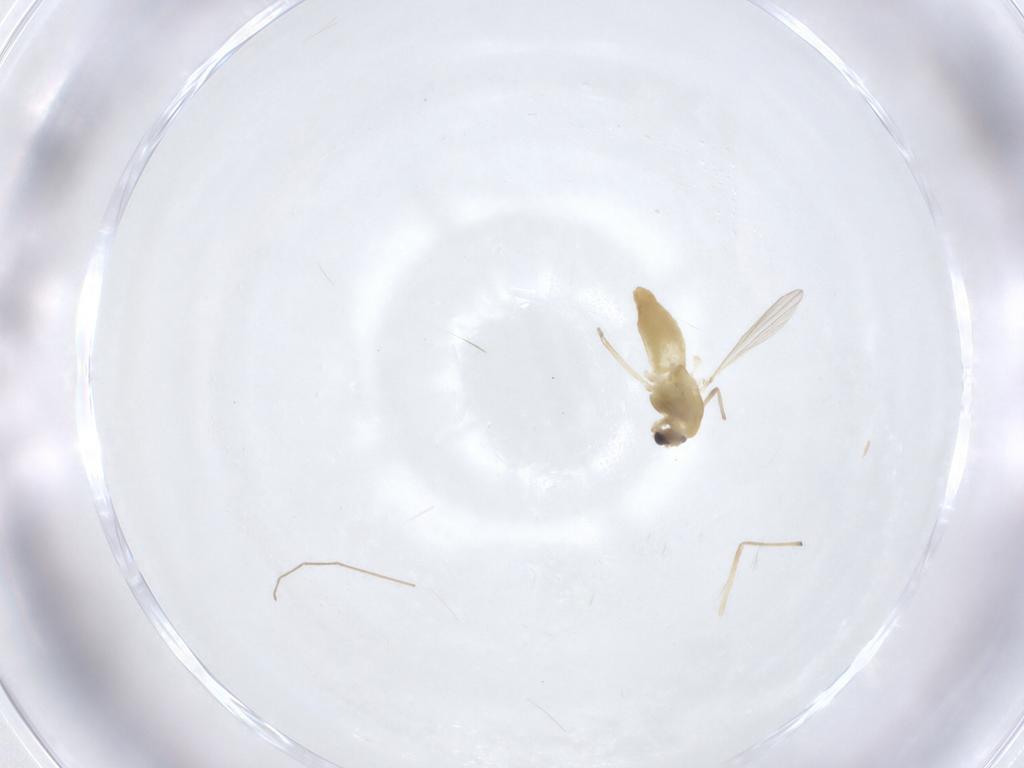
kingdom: Animalia
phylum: Arthropoda
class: Insecta
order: Diptera
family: Chironomidae
